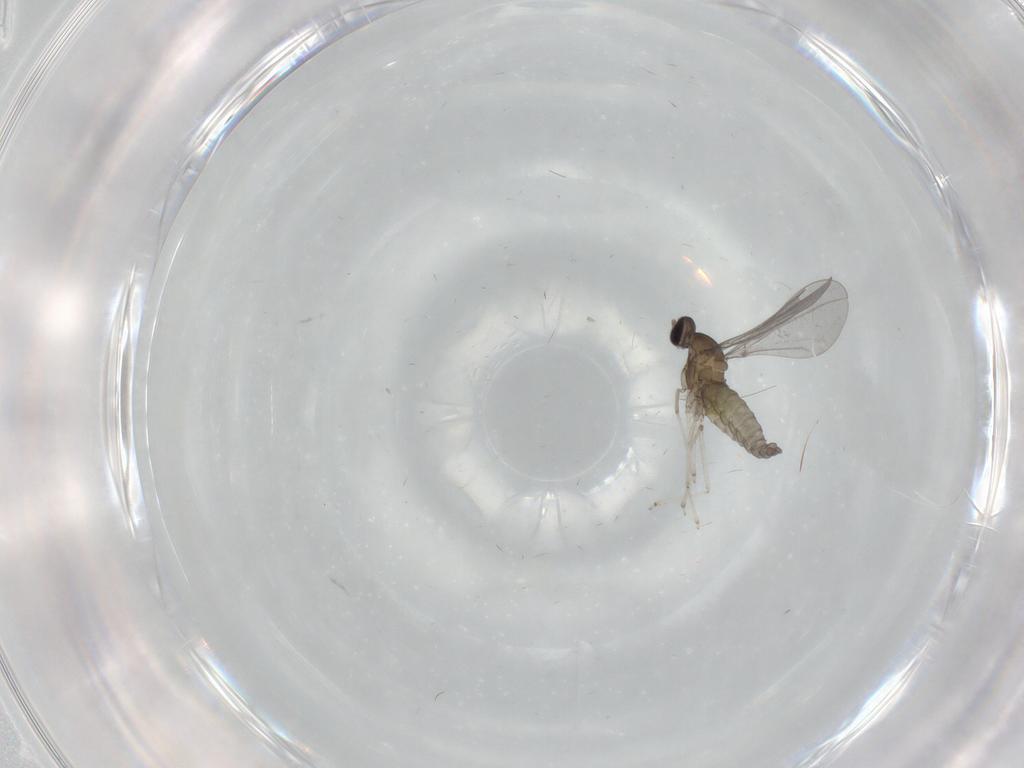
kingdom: Animalia
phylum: Arthropoda
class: Insecta
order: Diptera
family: Cecidomyiidae
